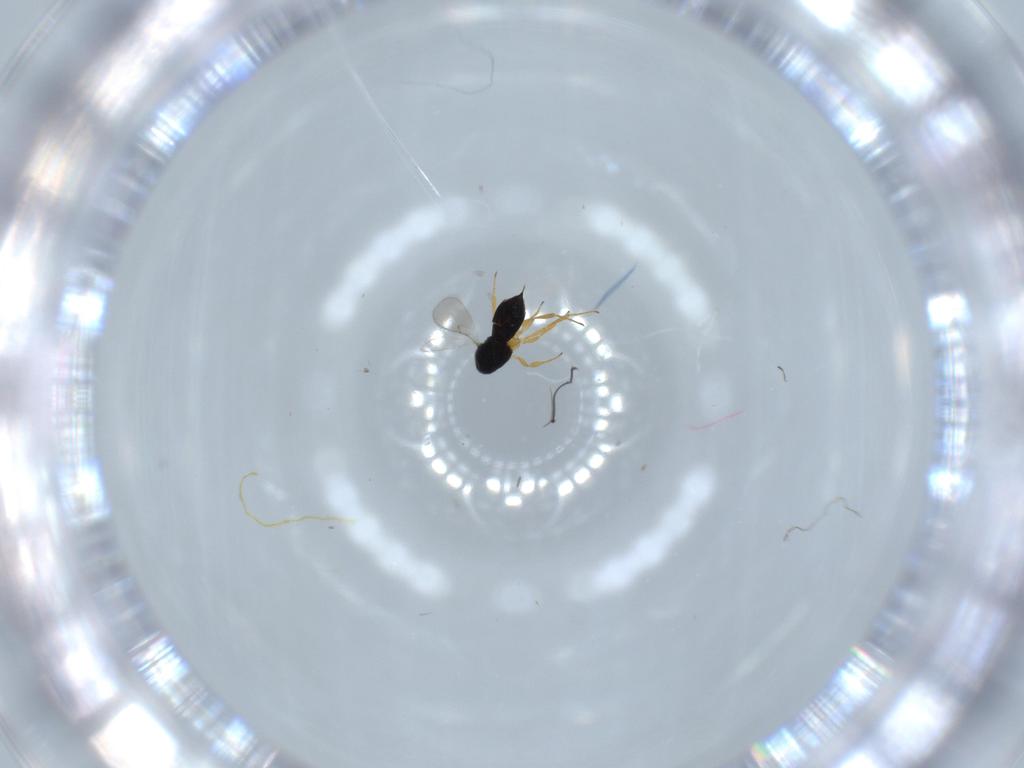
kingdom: Animalia
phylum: Arthropoda
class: Insecta
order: Hymenoptera
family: Scelionidae
